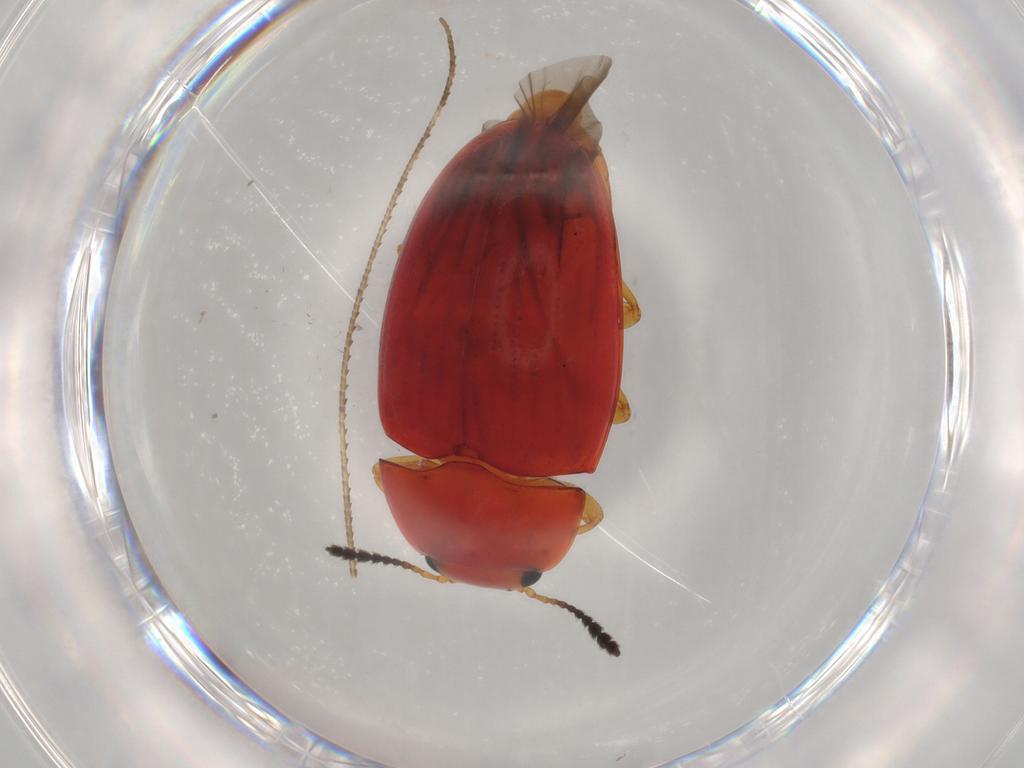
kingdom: Animalia
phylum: Arthropoda
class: Insecta
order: Coleoptera
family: Erotylidae
